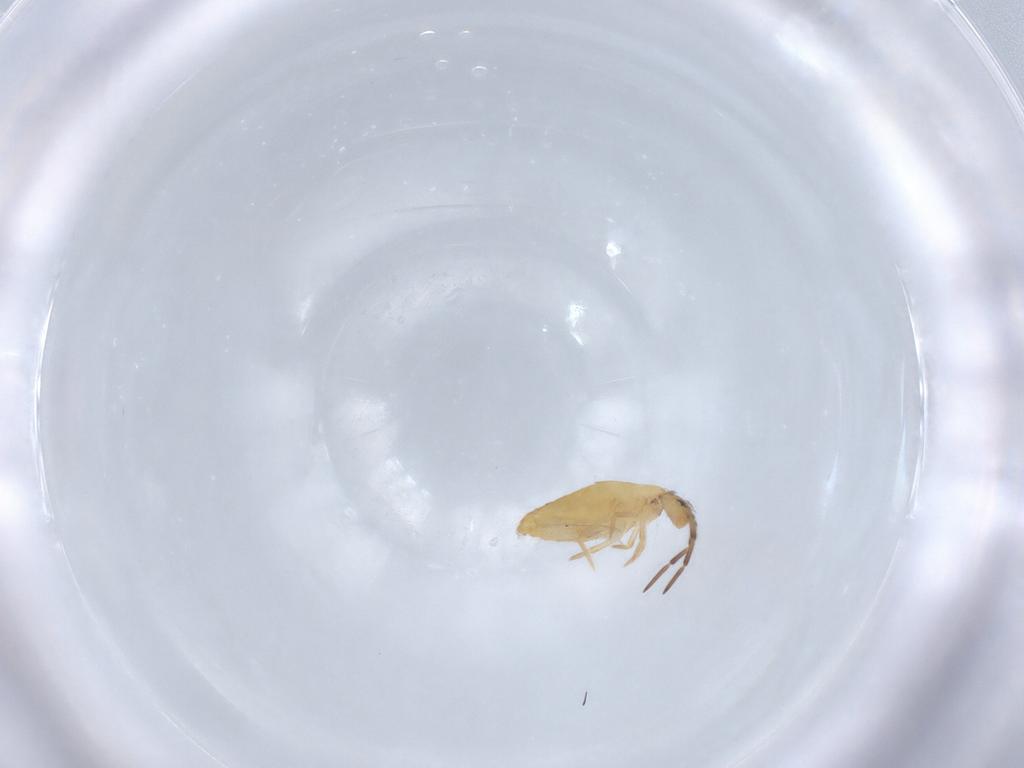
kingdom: Animalia
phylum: Arthropoda
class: Collembola
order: Entomobryomorpha
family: Entomobryidae
